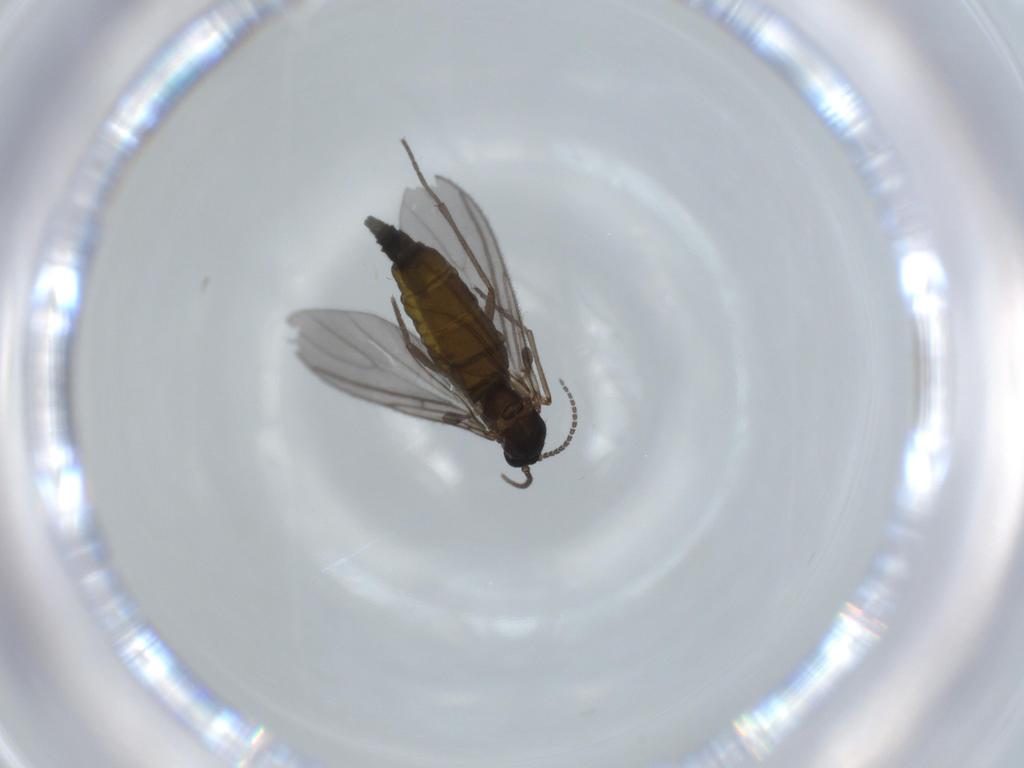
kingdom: Animalia
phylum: Arthropoda
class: Insecta
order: Diptera
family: Sciaridae
